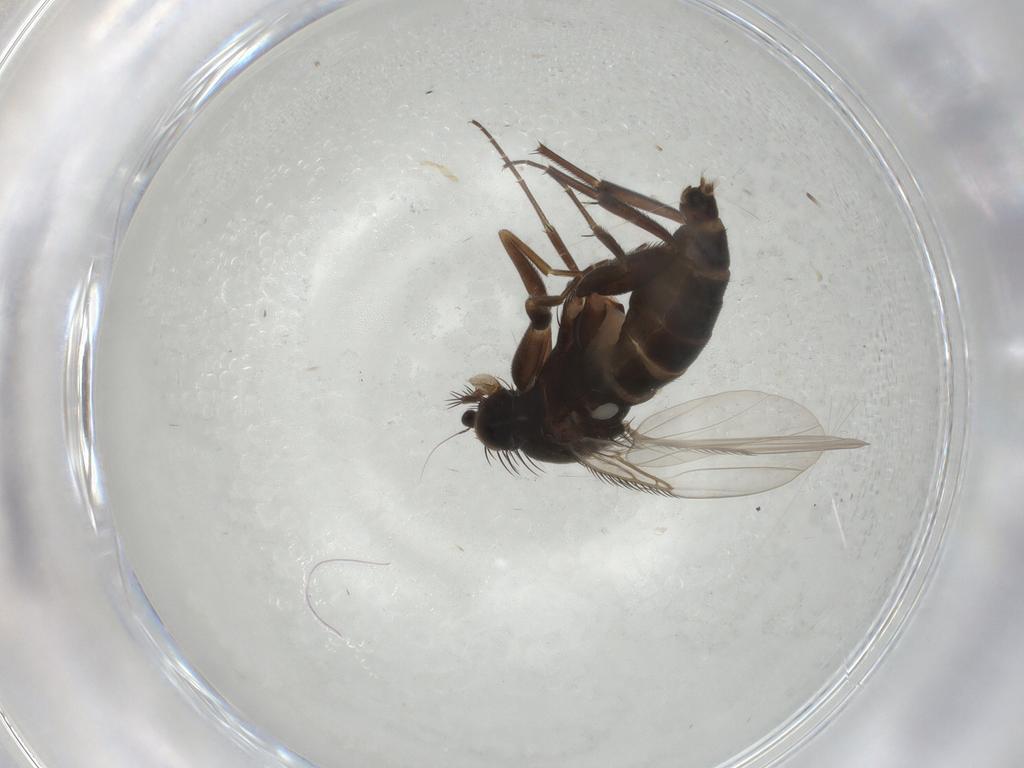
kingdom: Animalia
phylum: Arthropoda
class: Insecta
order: Diptera
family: Phoridae
